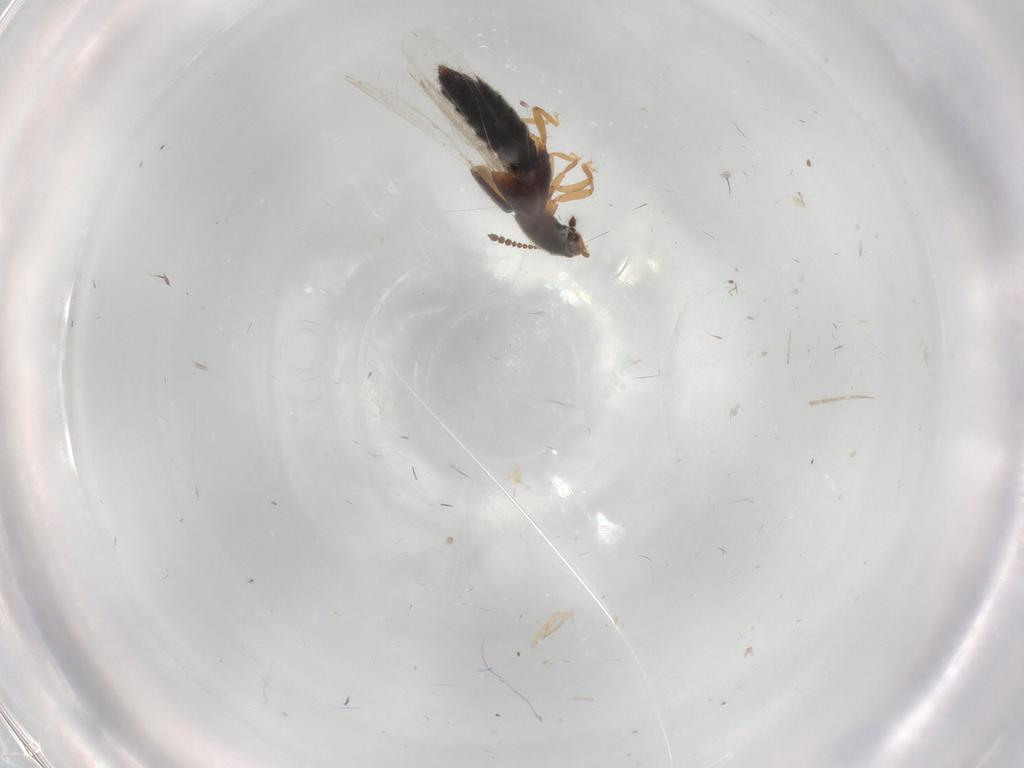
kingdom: Animalia
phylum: Arthropoda
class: Insecta
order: Coleoptera
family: Staphylinidae
